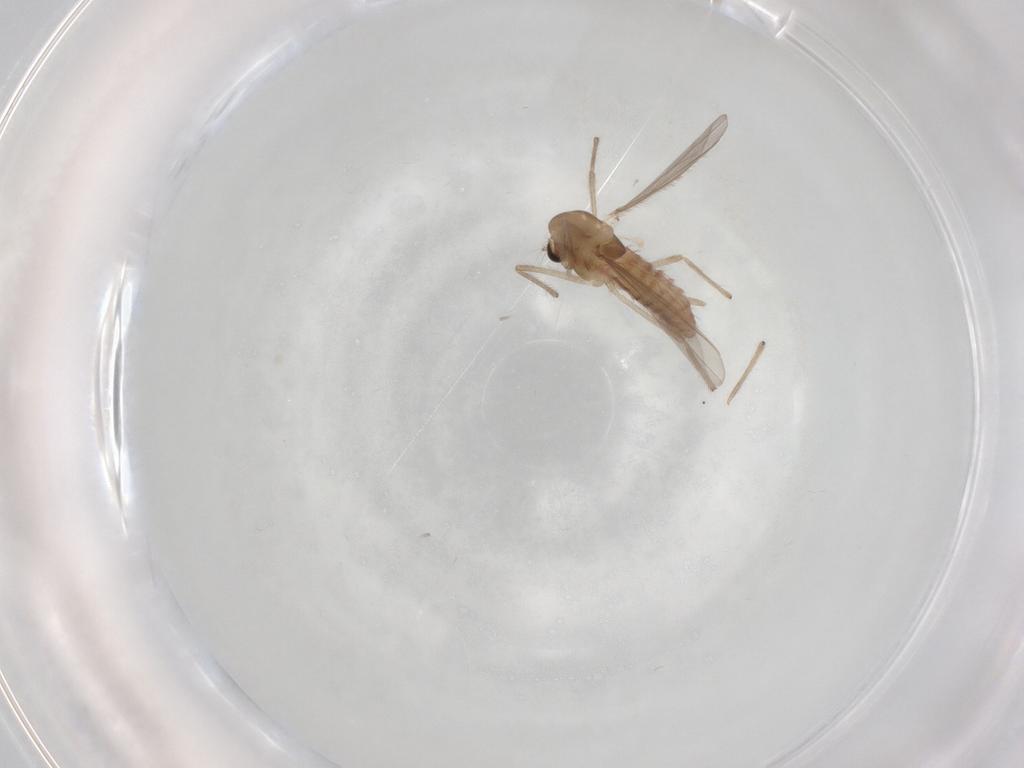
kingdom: Animalia
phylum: Arthropoda
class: Insecta
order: Diptera
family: Chironomidae
